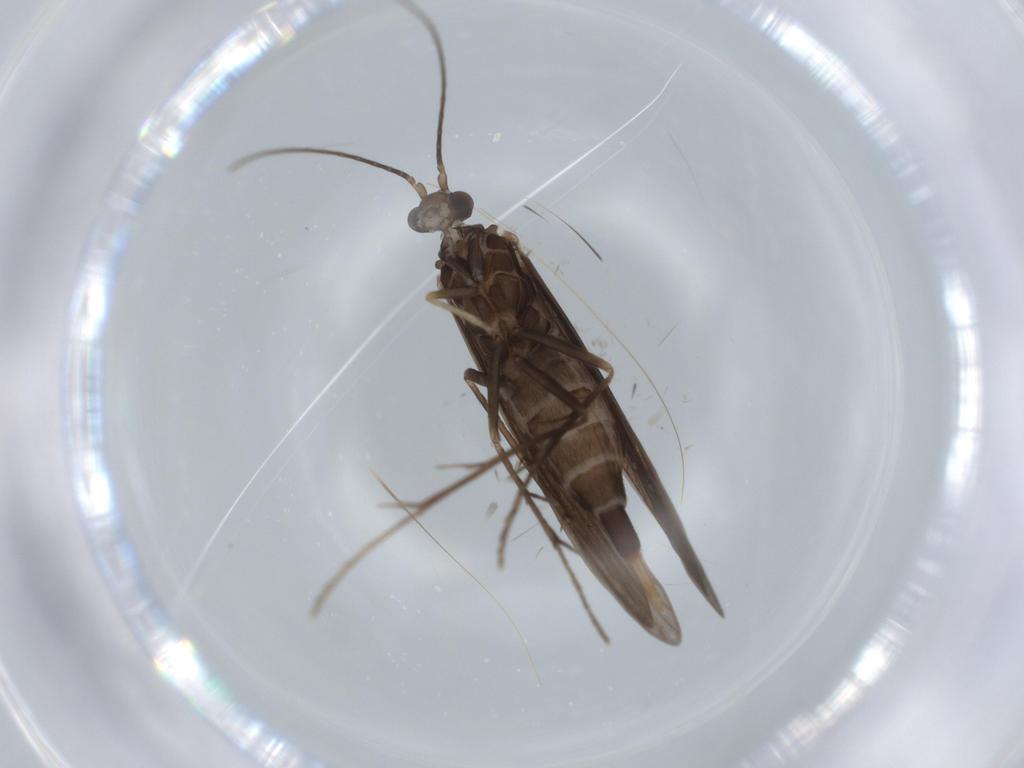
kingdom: Animalia
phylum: Arthropoda
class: Insecta
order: Trichoptera
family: Xiphocentronidae
